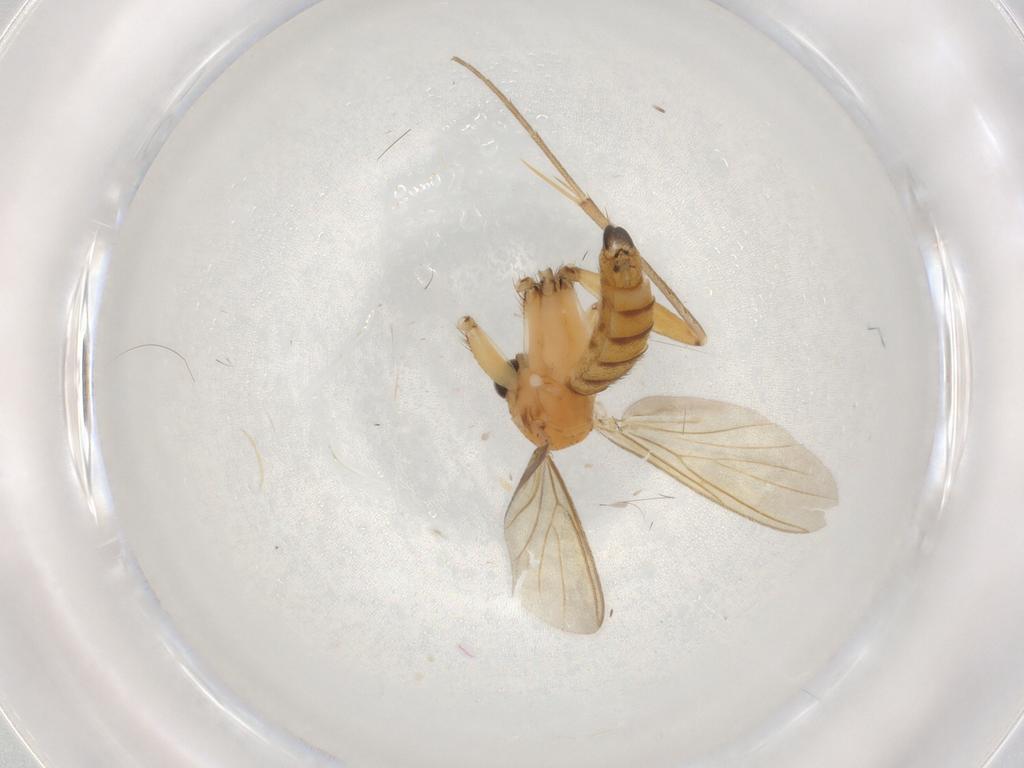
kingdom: Animalia
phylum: Arthropoda
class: Insecta
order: Diptera
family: Mycetophilidae
